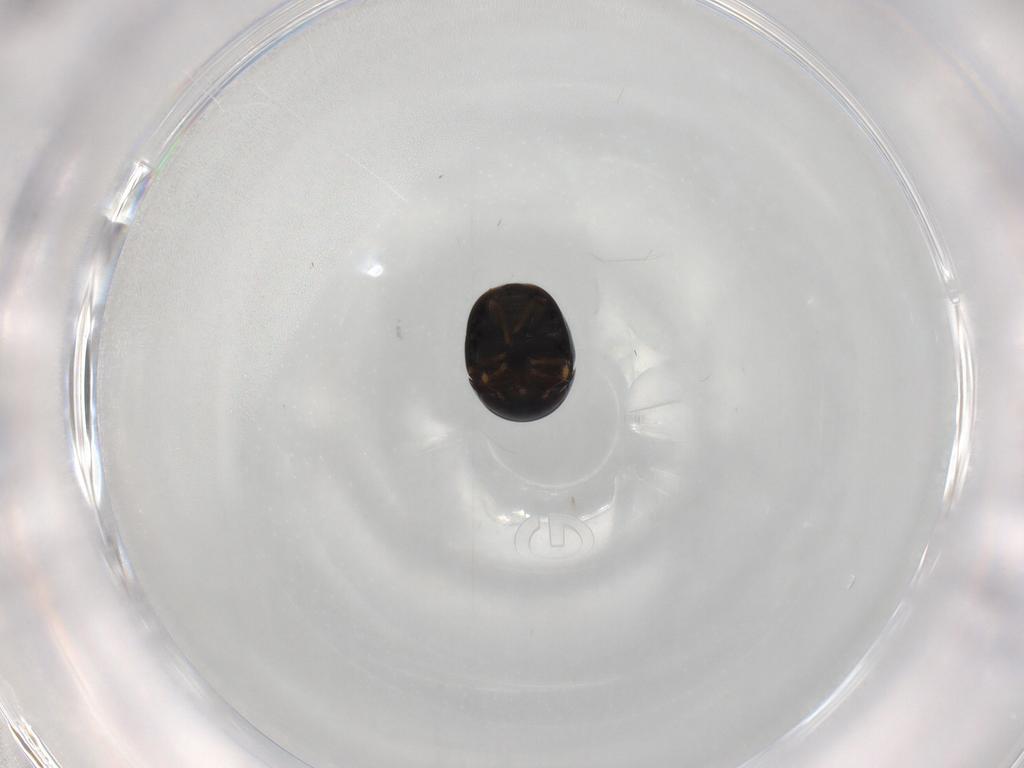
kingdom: Animalia
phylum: Arthropoda
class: Insecta
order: Coleoptera
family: Cybocephalidae
